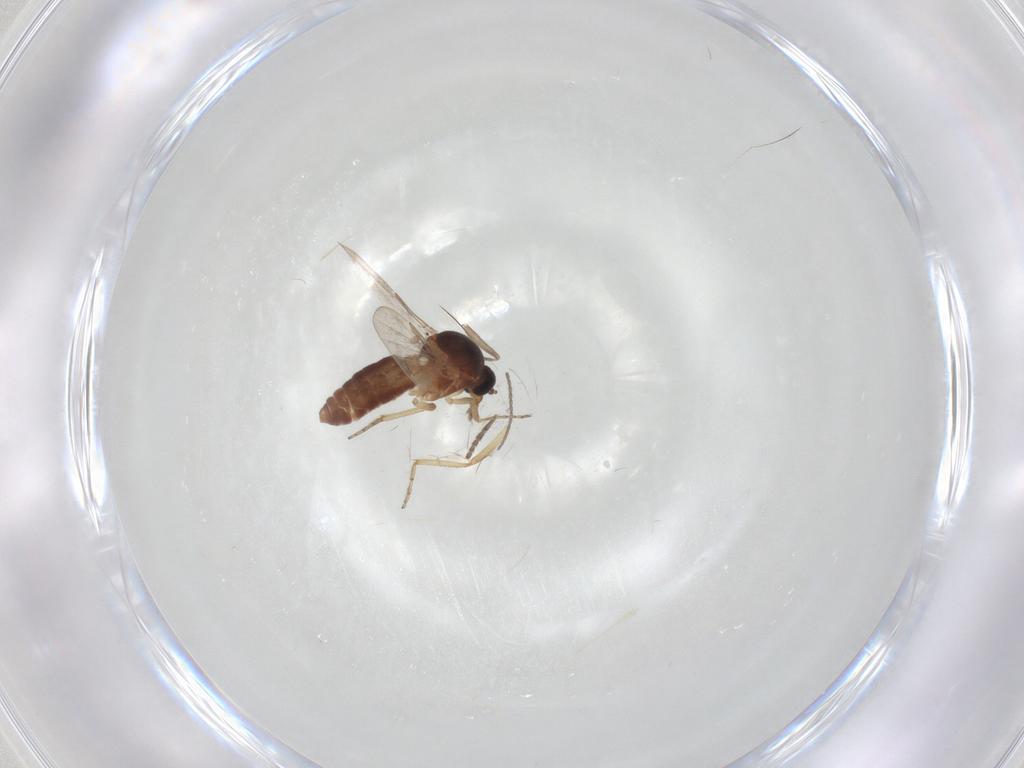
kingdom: Animalia
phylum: Arthropoda
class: Insecta
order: Diptera
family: Ceratopogonidae
